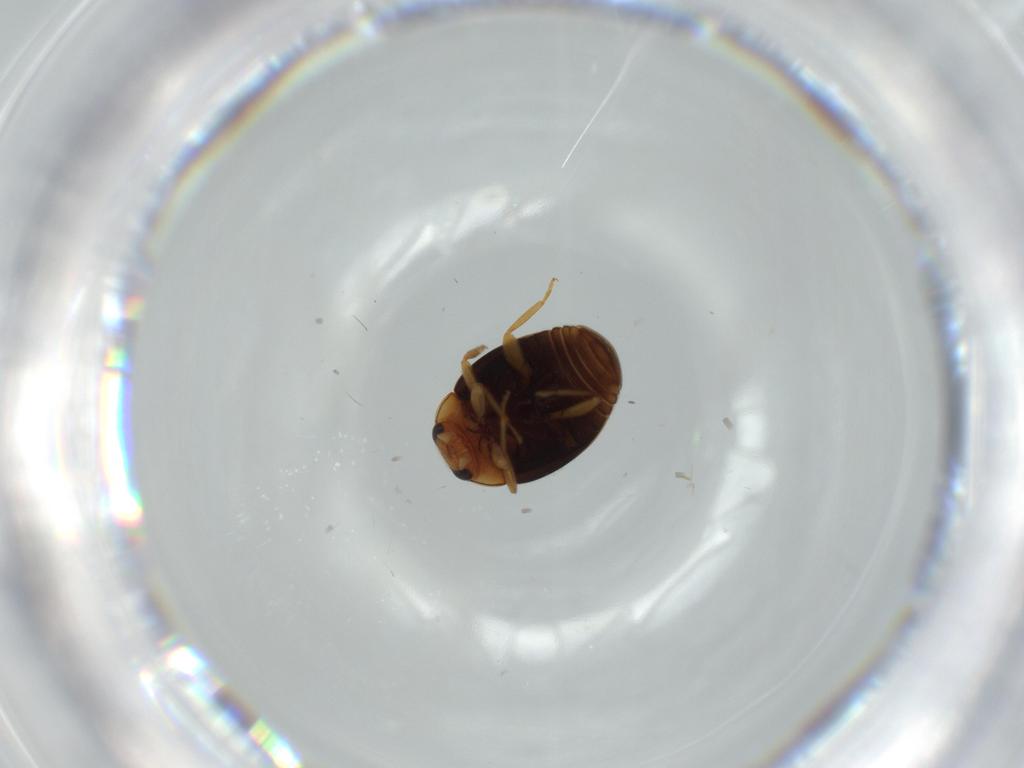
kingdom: Animalia
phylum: Arthropoda
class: Insecta
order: Coleoptera
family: Coccinellidae
